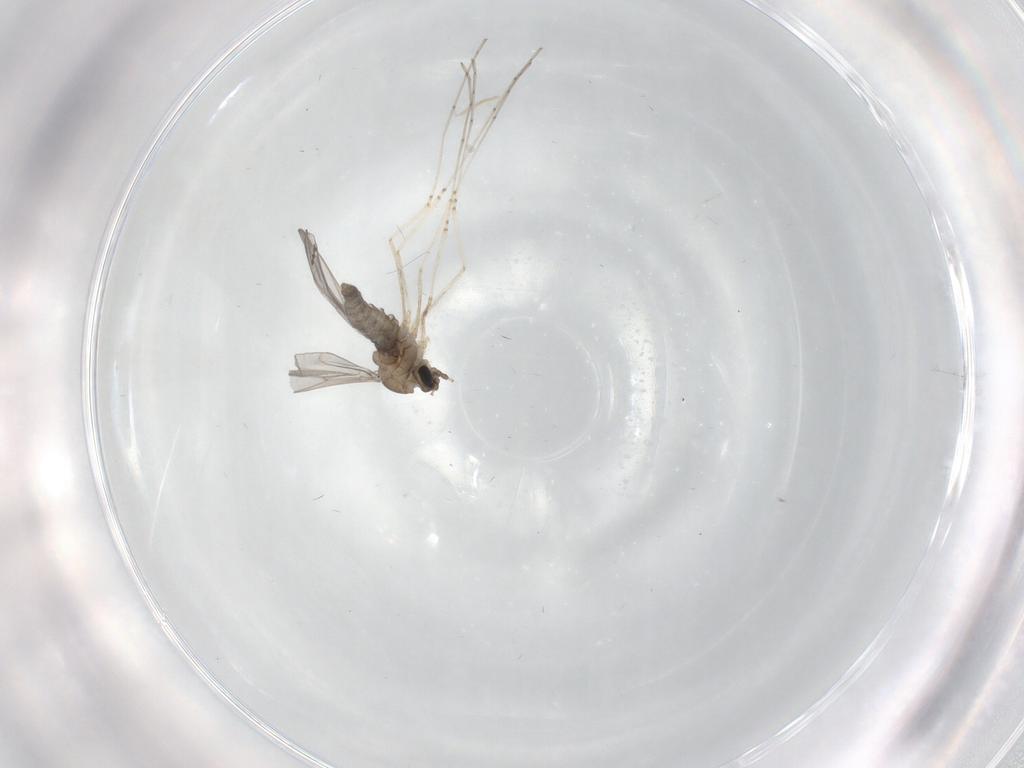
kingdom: Animalia
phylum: Arthropoda
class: Insecta
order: Diptera
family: Cecidomyiidae
